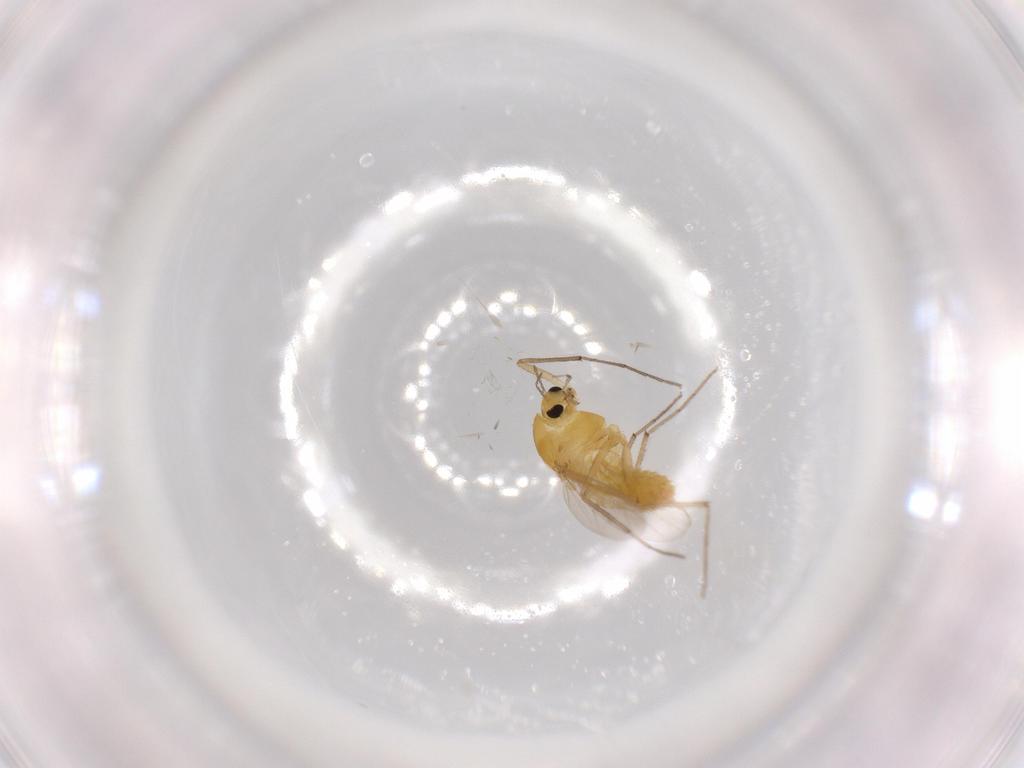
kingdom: Animalia
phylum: Arthropoda
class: Insecta
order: Diptera
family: Chironomidae
